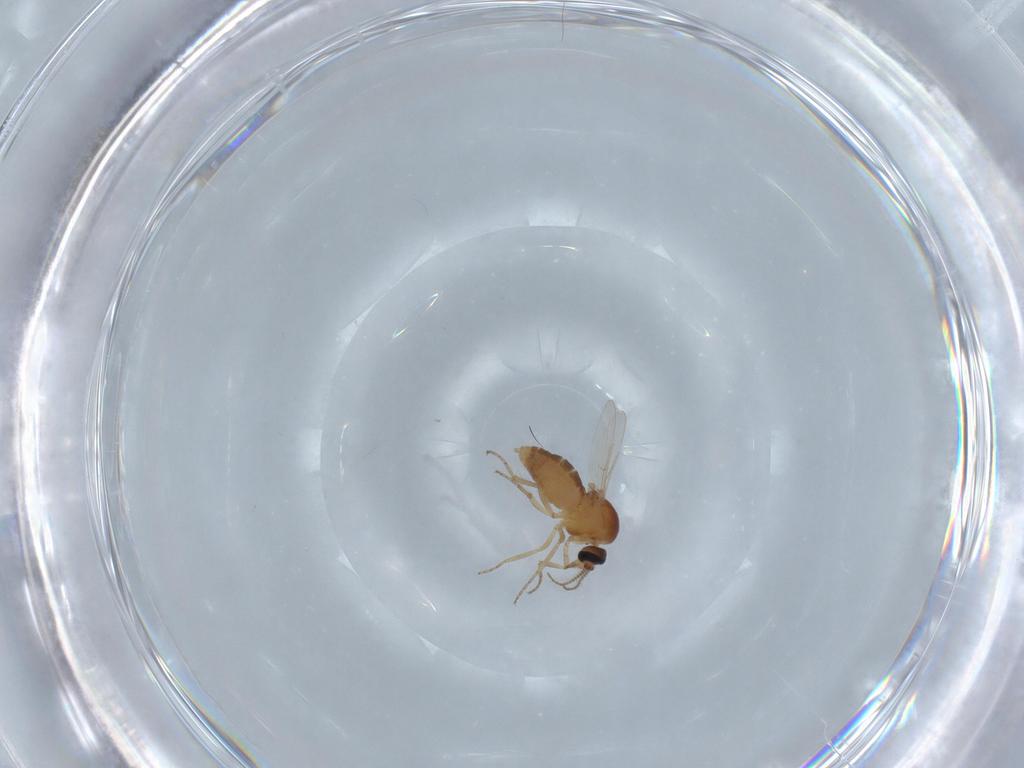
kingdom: Animalia
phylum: Arthropoda
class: Insecta
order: Diptera
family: Ceratopogonidae
